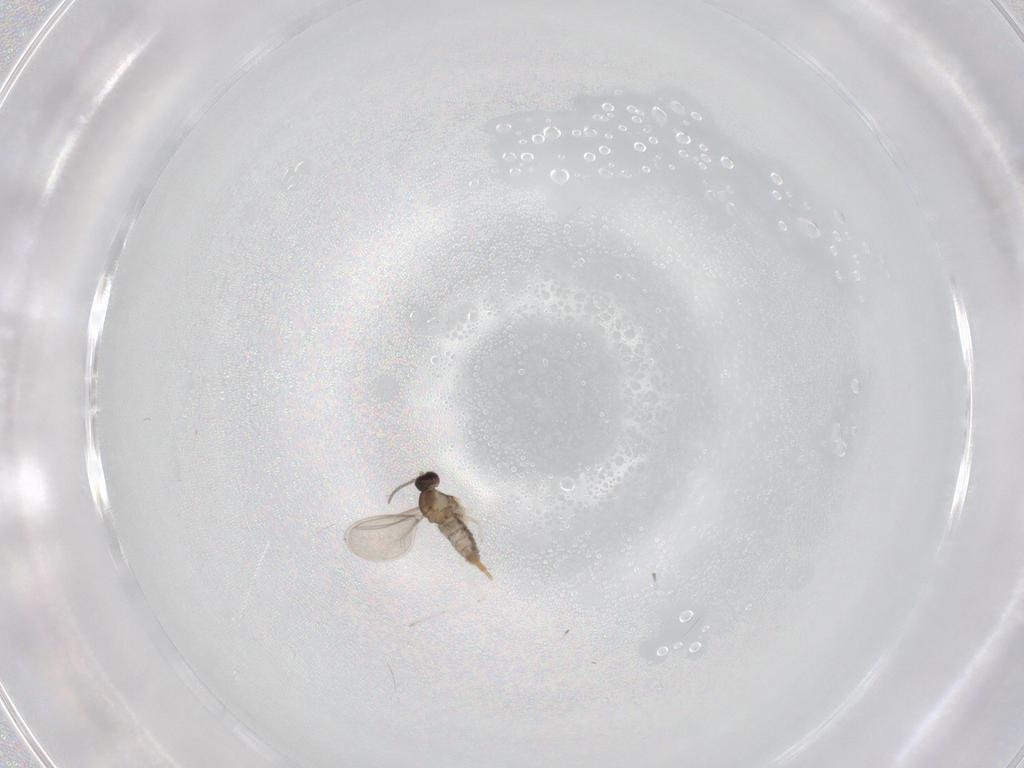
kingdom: Animalia
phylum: Arthropoda
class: Insecta
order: Diptera
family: Cecidomyiidae
